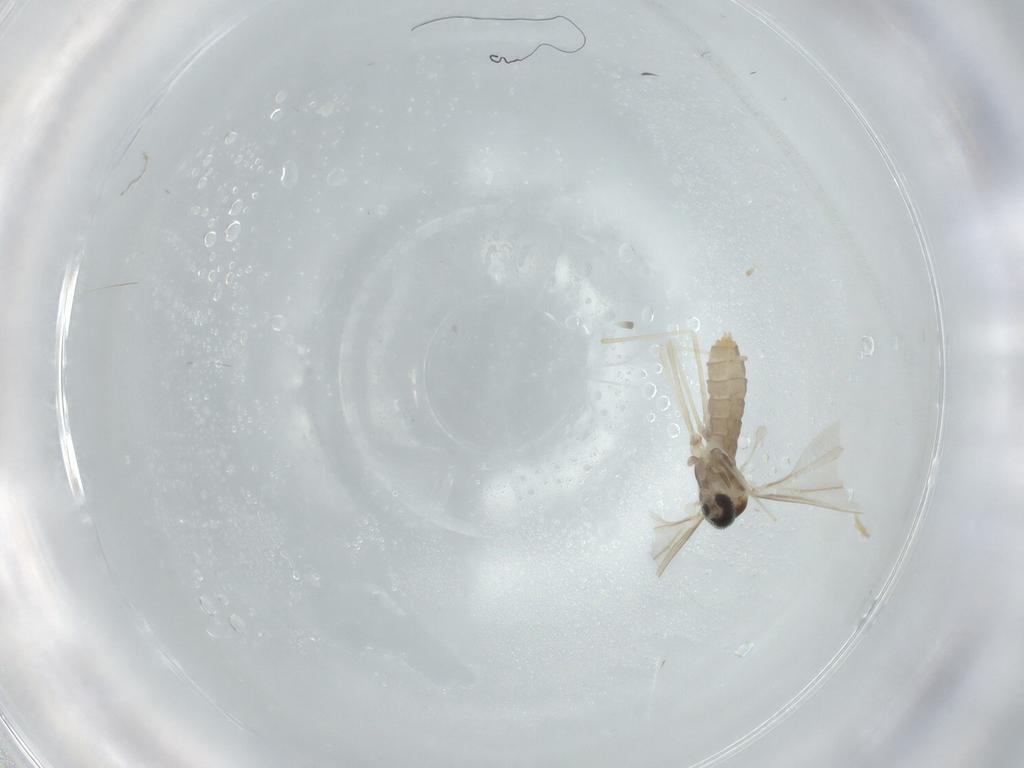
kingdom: Animalia
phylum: Arthropoda
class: Insecta
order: Diptera
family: Cecidomyiidae
